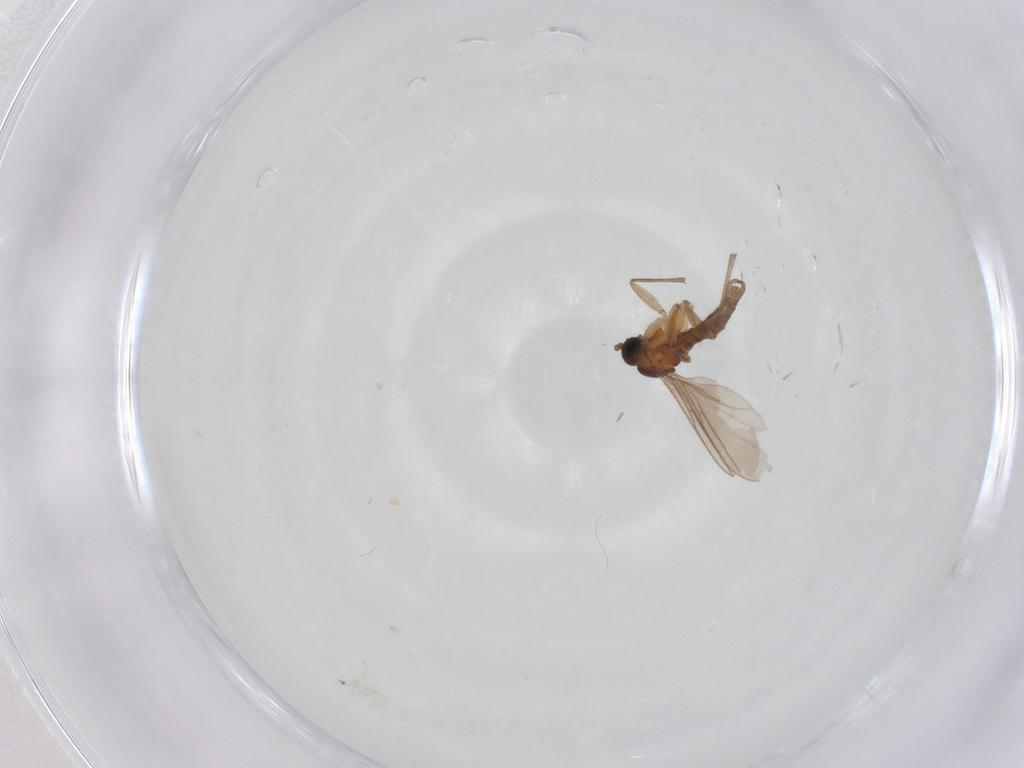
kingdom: Animalia
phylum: Arthropoda
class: Insecta
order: Diptera
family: Sciaridae
